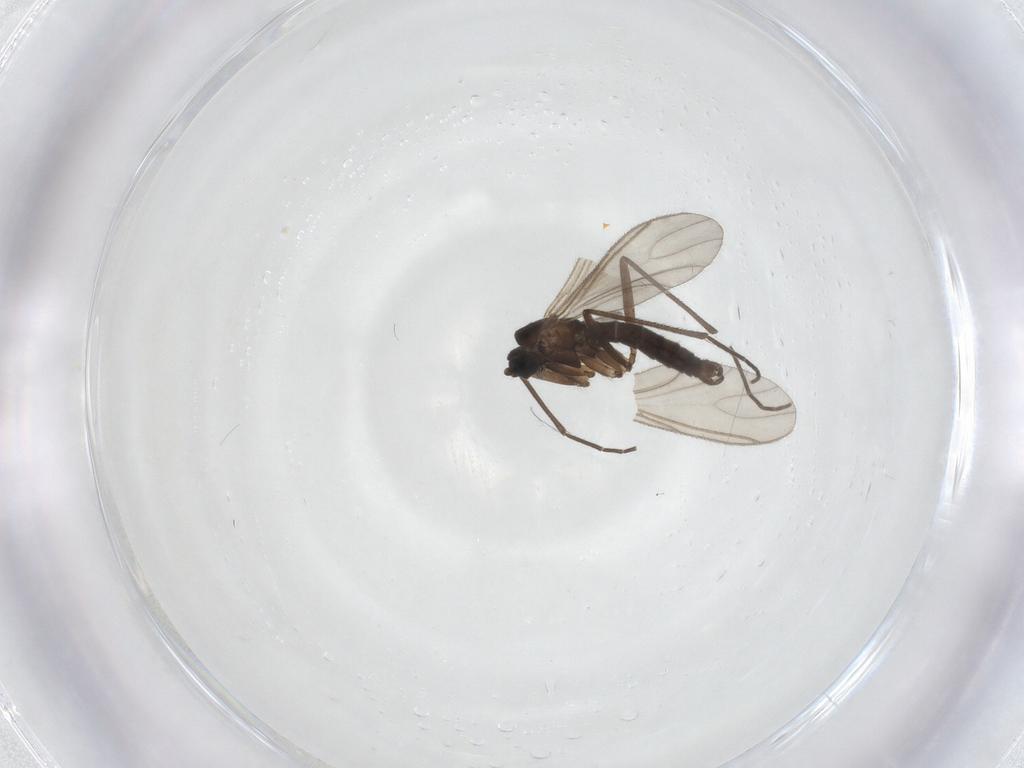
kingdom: Animalia
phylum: Arthropoda
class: Insecta
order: Diptera
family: Sciaridae
